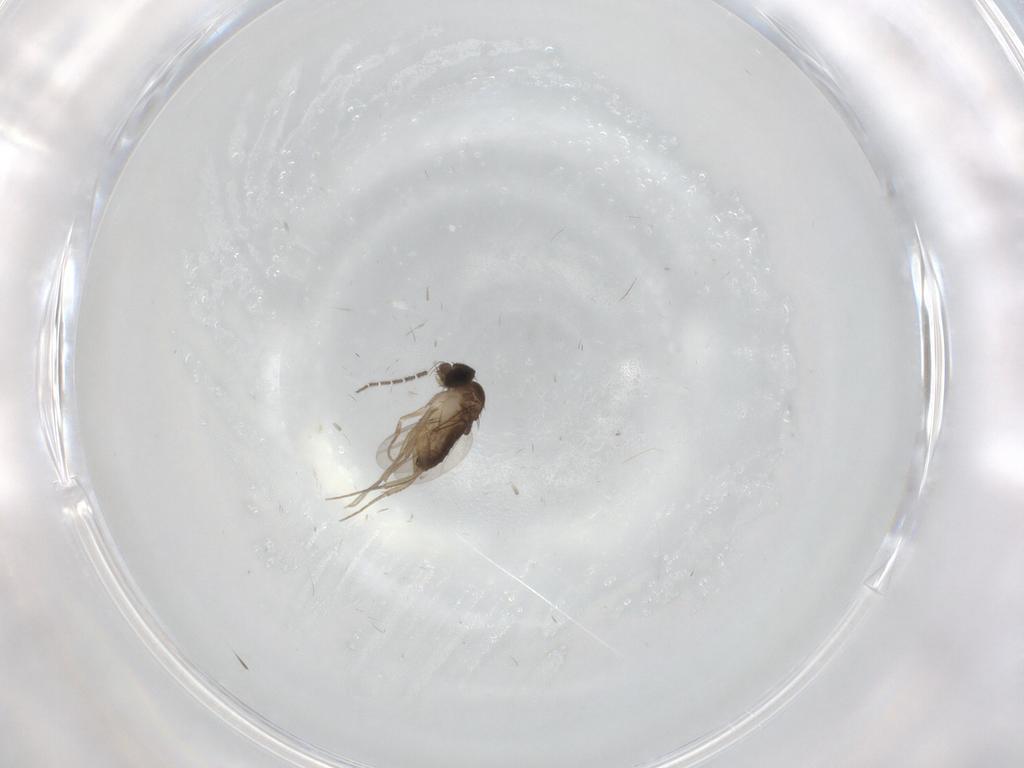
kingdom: Animalia
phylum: Arthropoda
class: Insecta
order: Diptera
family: Phoridae
